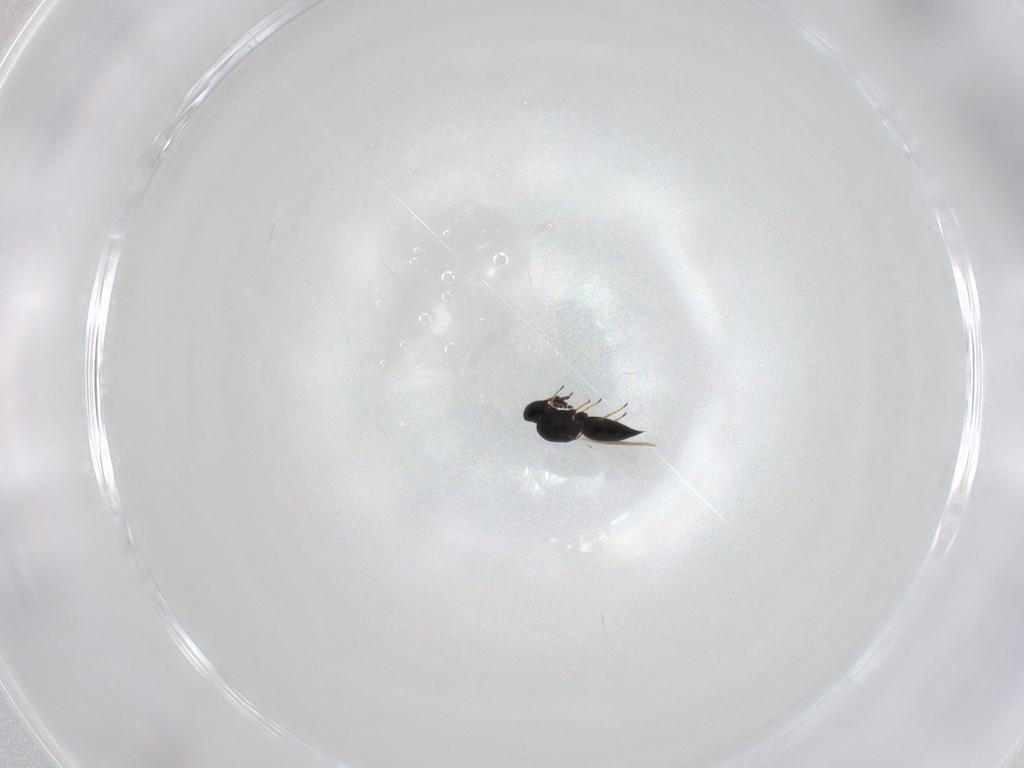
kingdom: Animalia
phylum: Arthropoda
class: Insecta
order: Hymenoptera
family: Platygastridae
